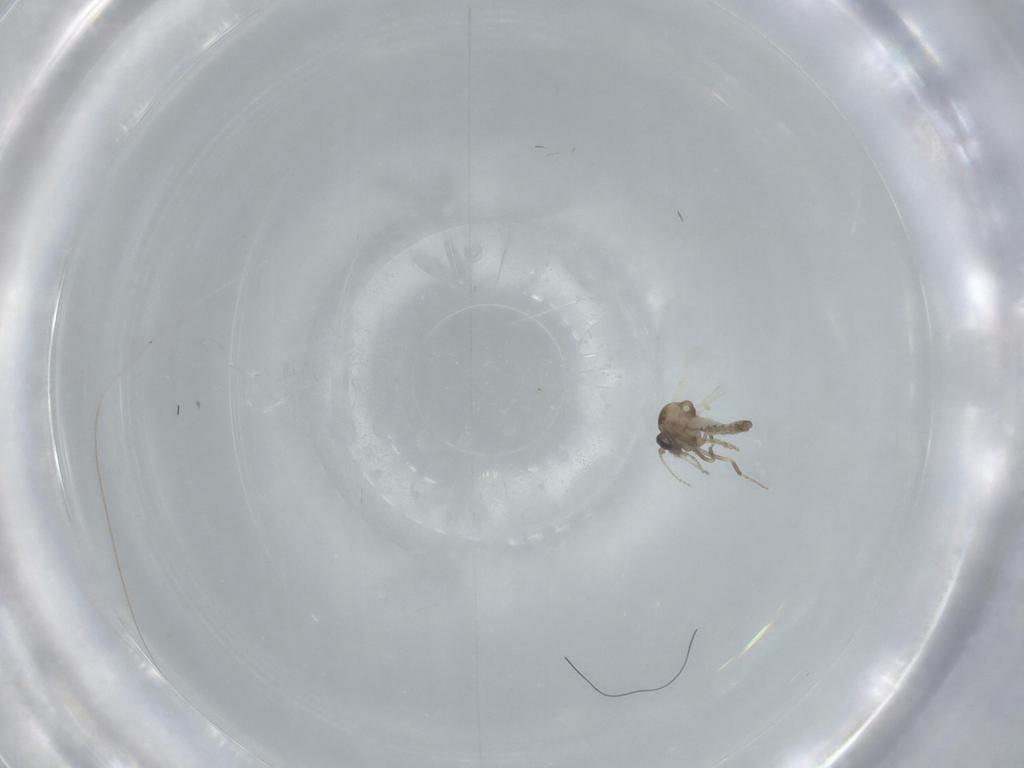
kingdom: Animalia
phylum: Arthropoda
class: Insecta
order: Diptera
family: Ceratopogonidae
